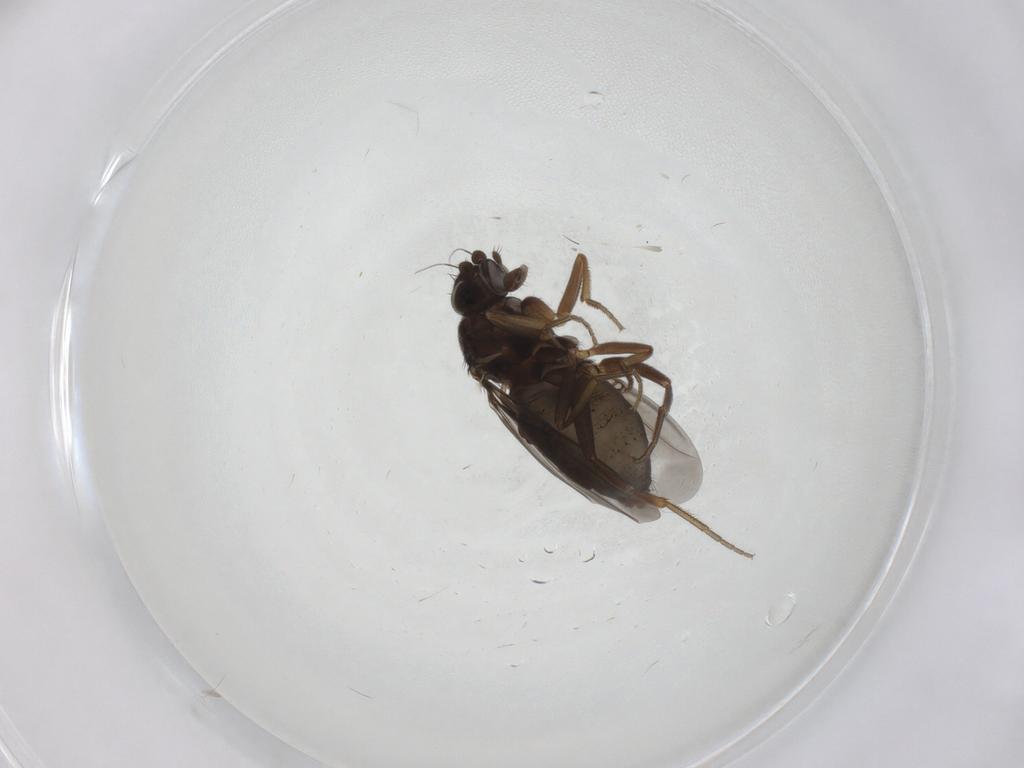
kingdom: Animalia
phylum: Arthropoda
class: Insecta
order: Diptera
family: Phoridae
